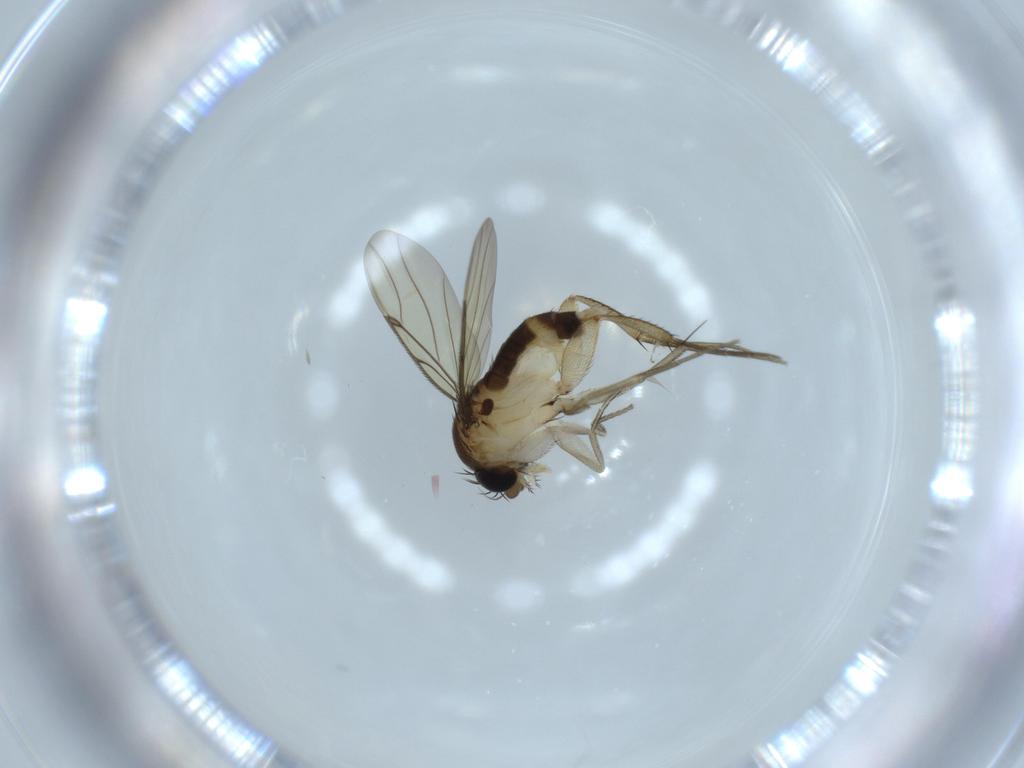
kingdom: Animalia
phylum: Arthropoda
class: Insecta
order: Diptera
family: Phoridae
